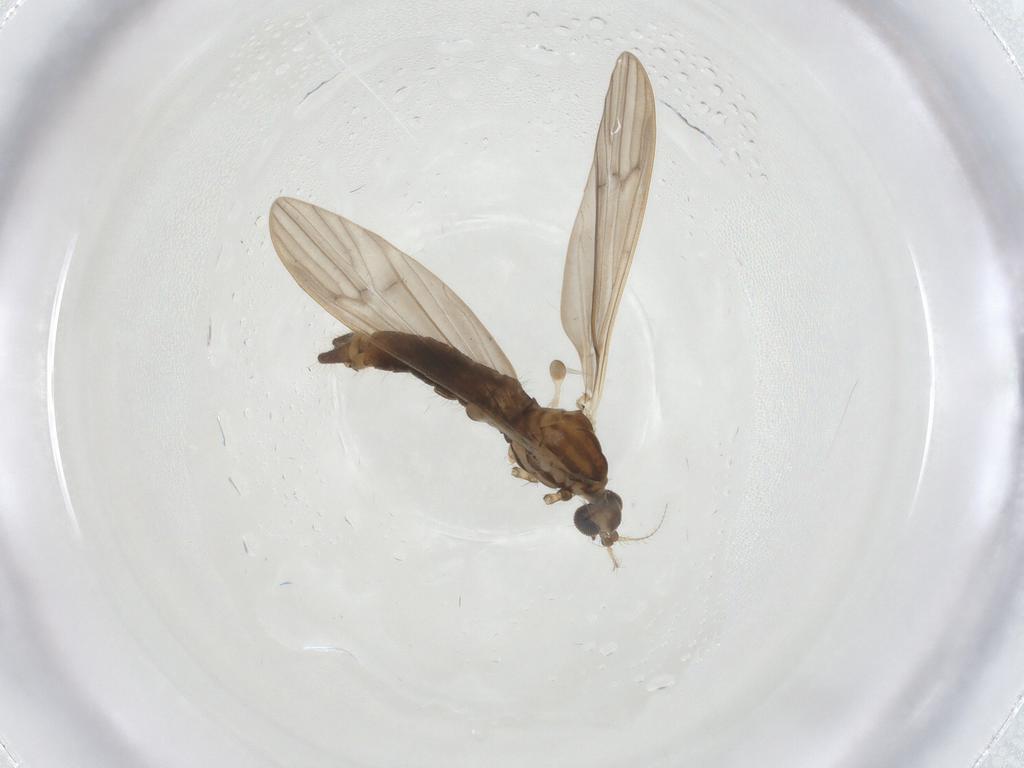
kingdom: Animalia
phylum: Arthropoda
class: Insecta
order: Diptera
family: Limoniidae
